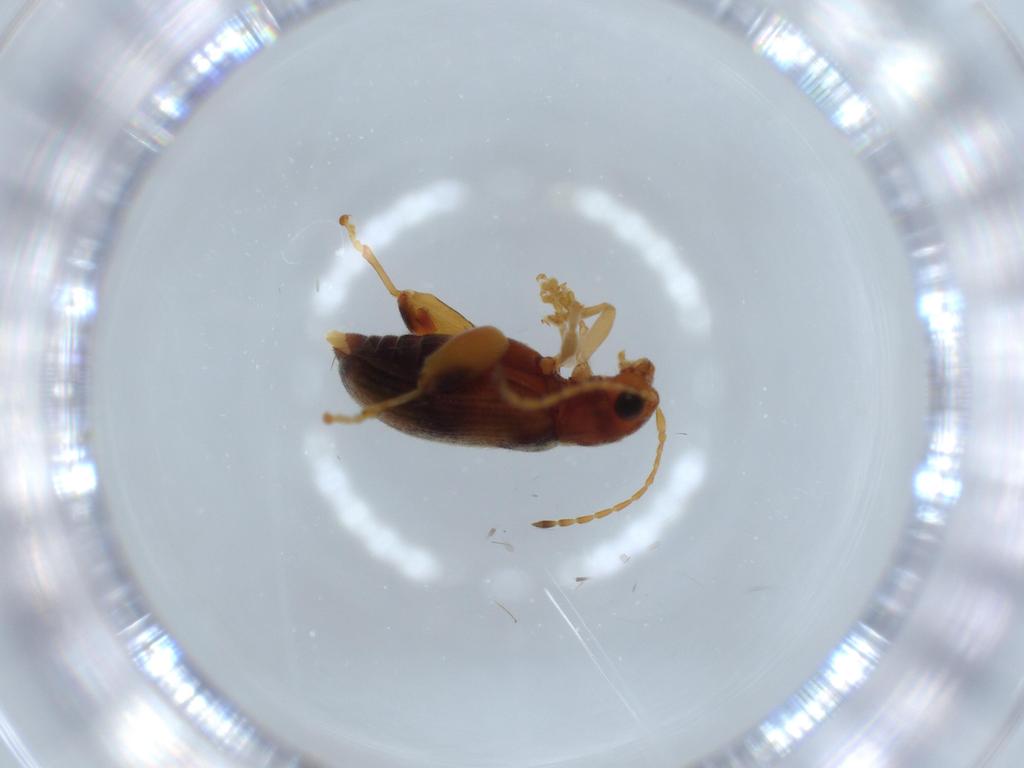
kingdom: Animalia
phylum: Arthropoda
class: Insecta
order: Coleoptera
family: Chrysomelidae
